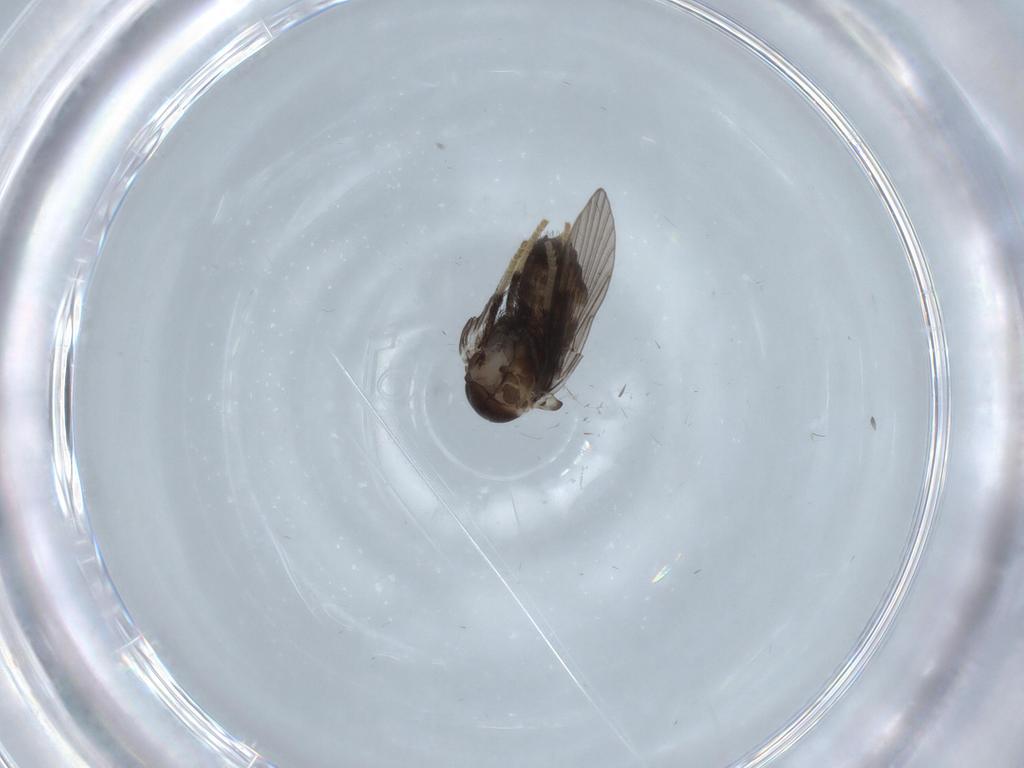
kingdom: Animalia
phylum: Arthropoda
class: Insecta
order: Diptera
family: Psychodidae
